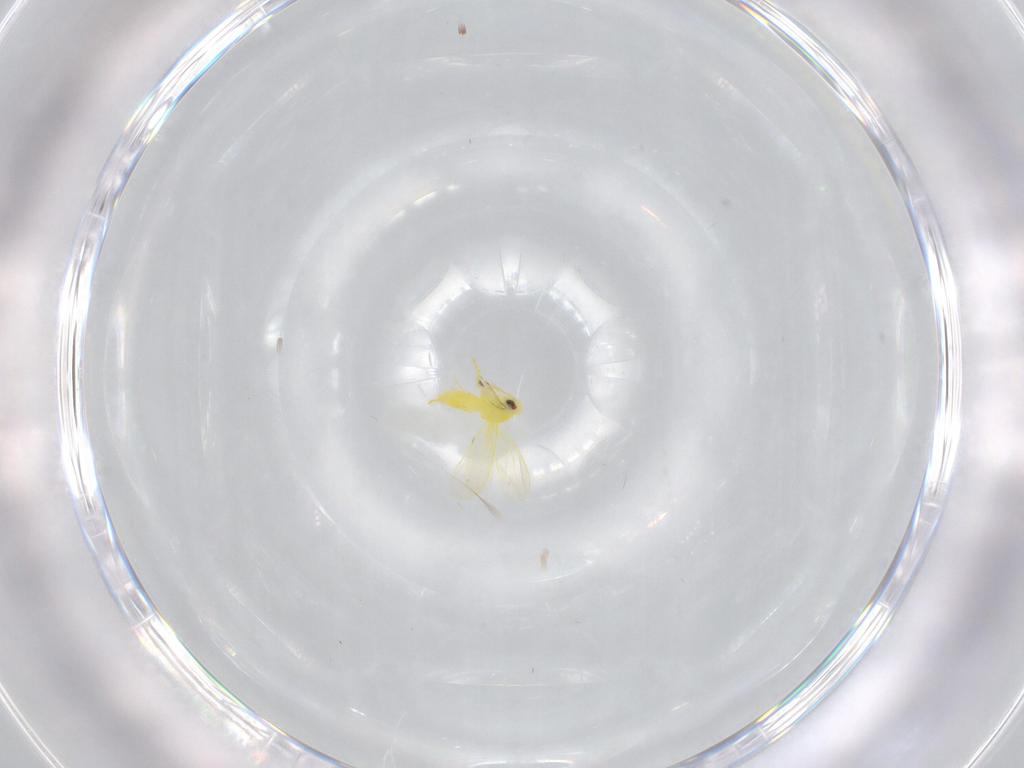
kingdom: Animalia
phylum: Arthropoda
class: Insecta
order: Hemiptera
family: Aleyrodidae
